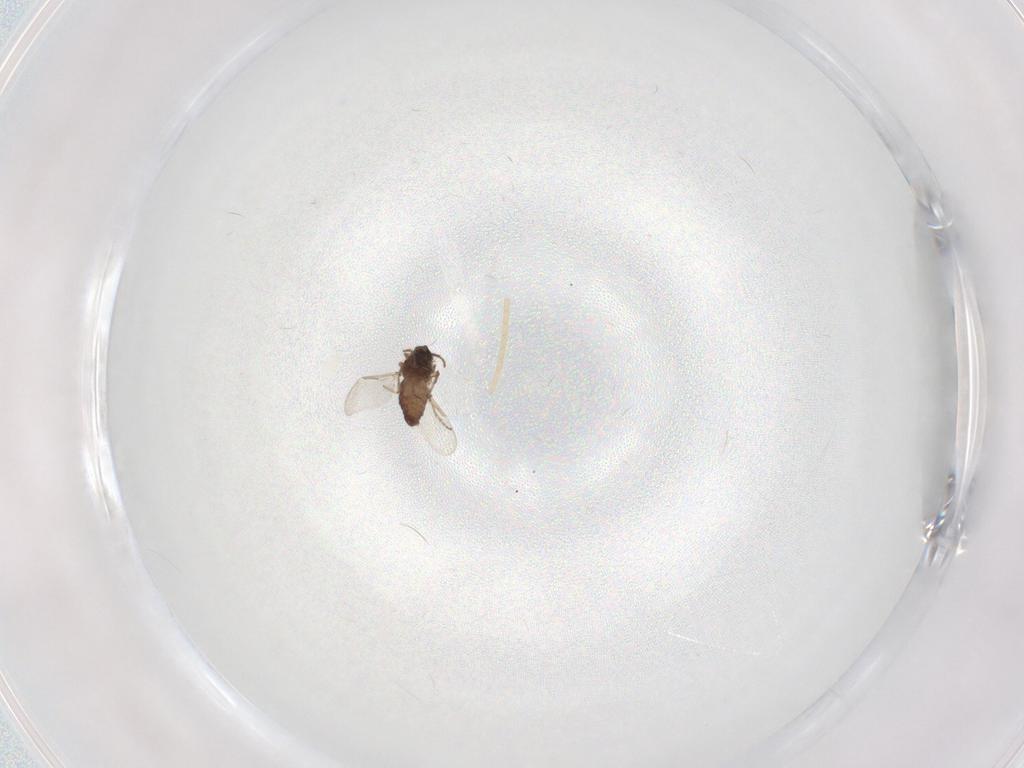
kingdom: Animalia
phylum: Arthropoda
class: Insecta
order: Diptera
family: Ceratopogonidae
